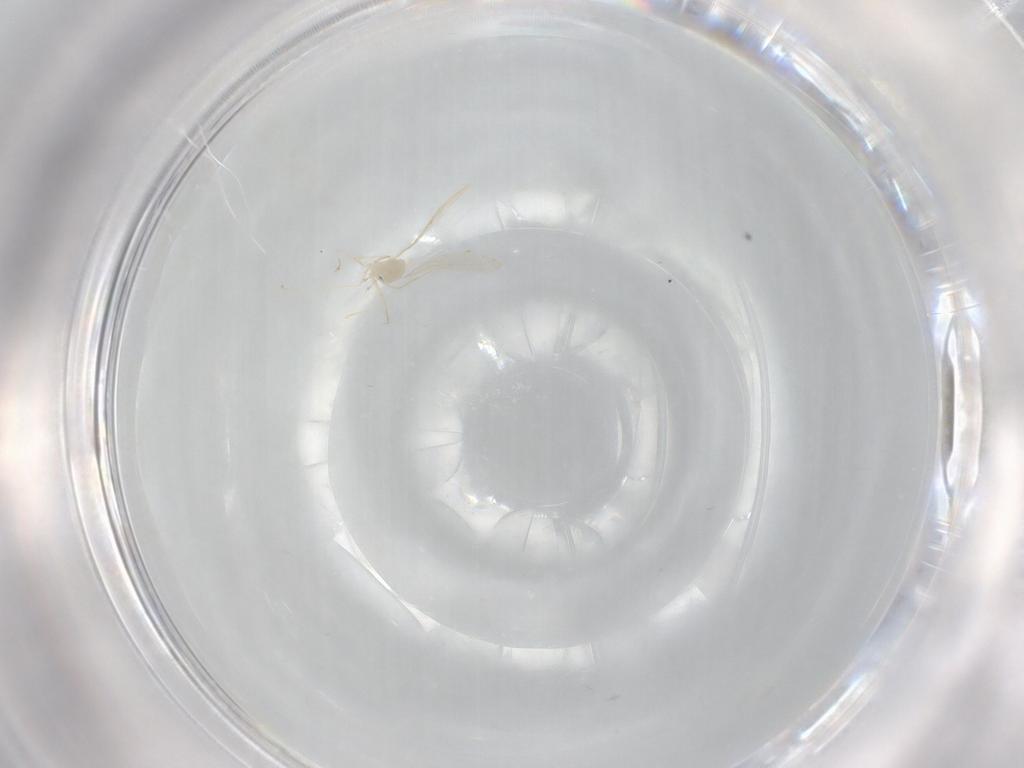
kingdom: Animalia
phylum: Arthropoda
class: Insecta
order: Diptera
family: Cecidomyiidae
